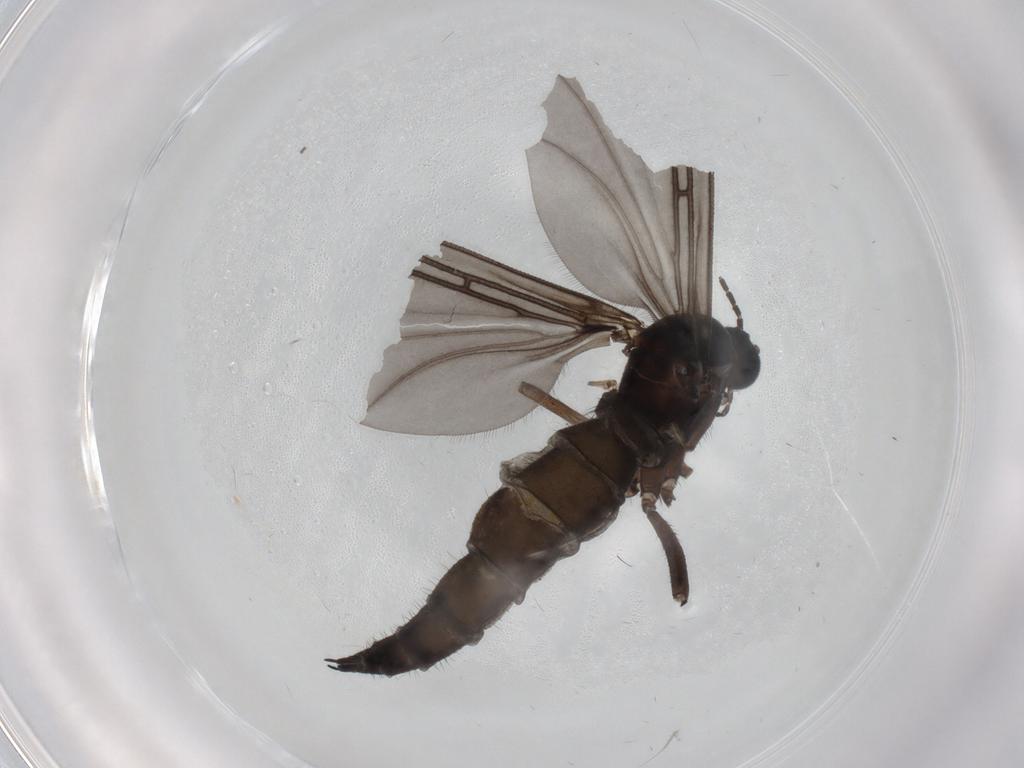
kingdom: Animalia
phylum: Arthropoda
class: Insecta
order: Diptera
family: Sciaridae
